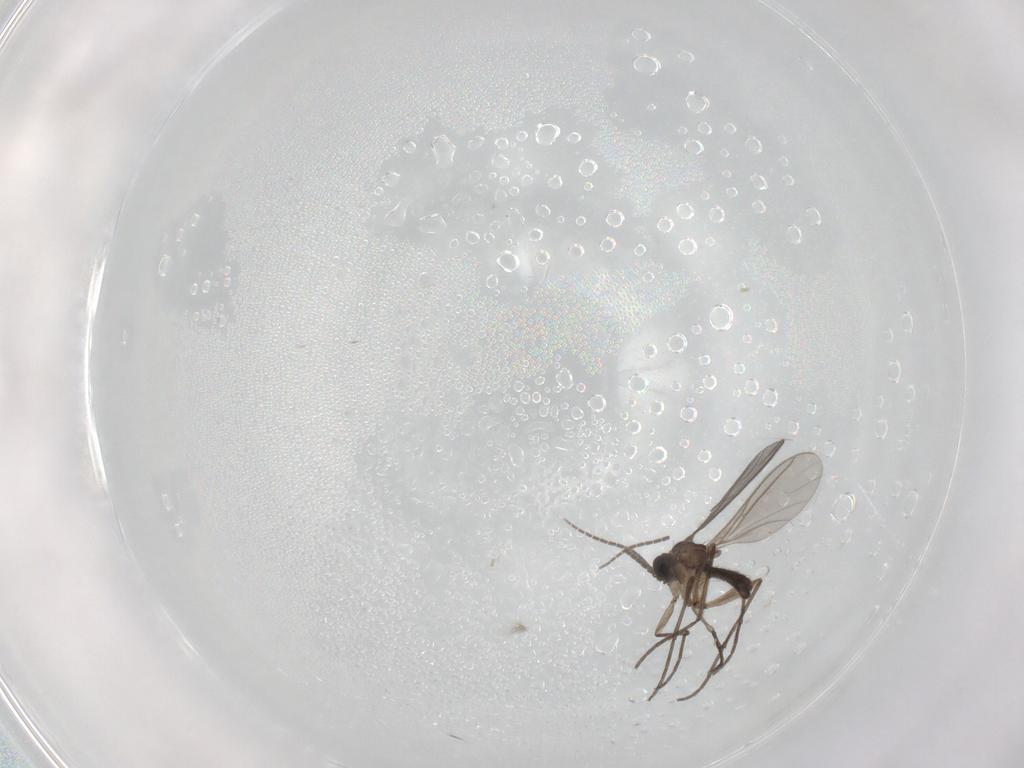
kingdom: Animalia
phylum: Arthropoda
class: Insecta
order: Diptera
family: Sciaridae
